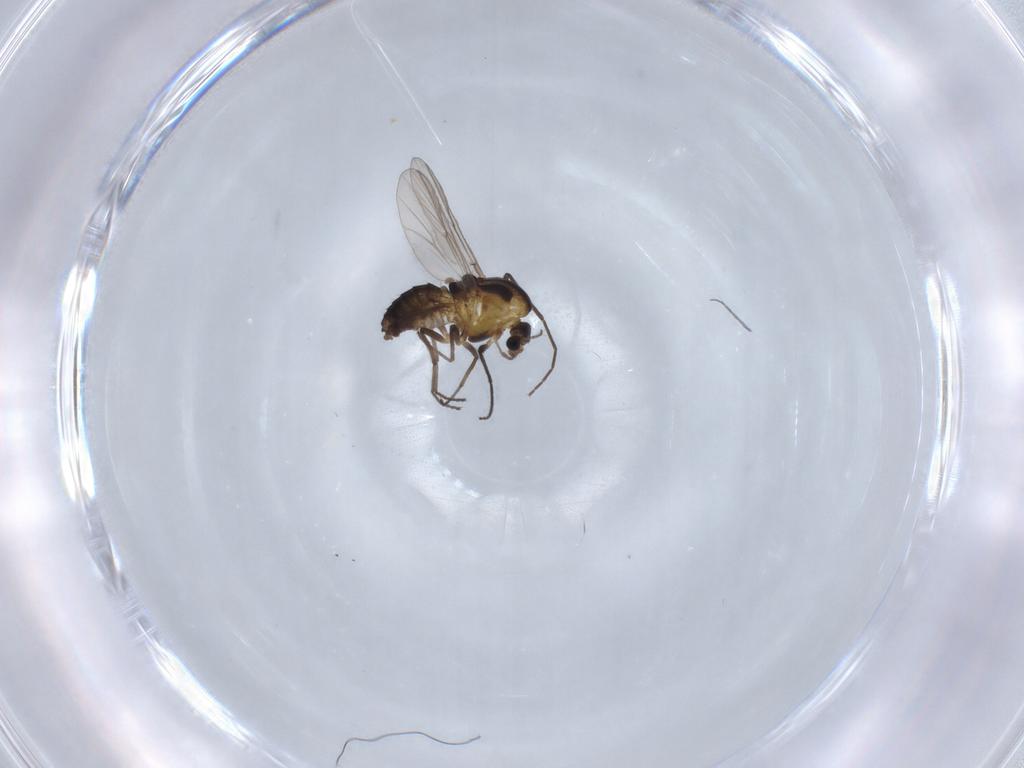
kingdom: Animalia
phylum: Arthropoda
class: Insecta
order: Diptera
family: Chironomidae
